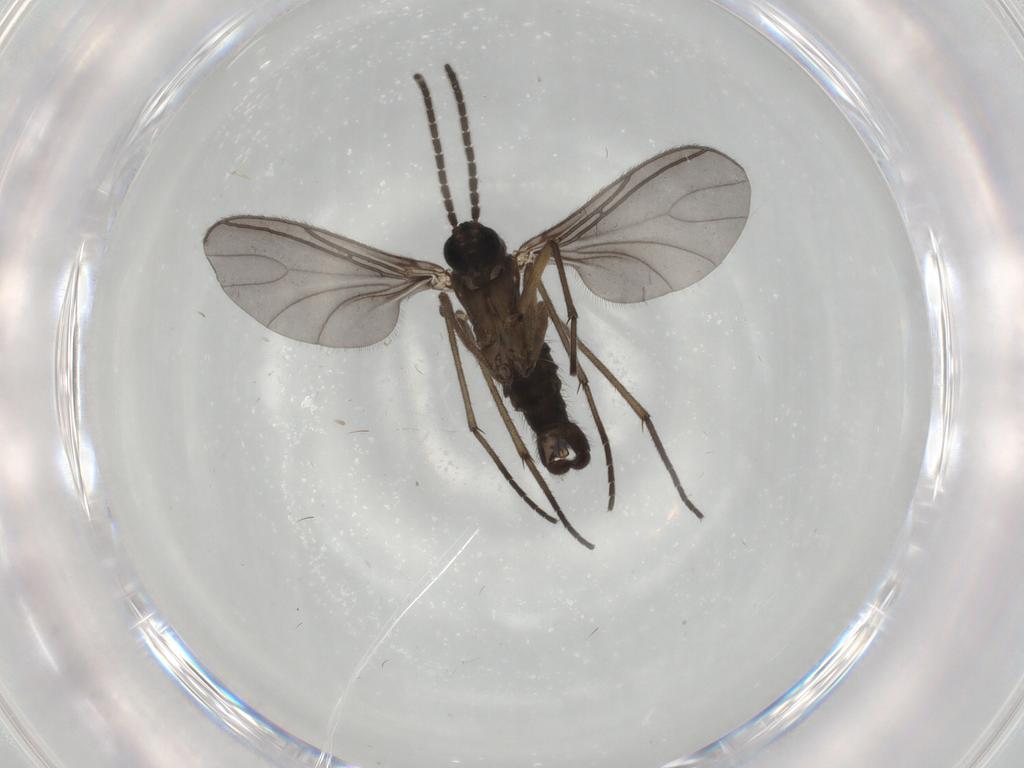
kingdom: Animalia
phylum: Arthropoda
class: Insecta
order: Diptera
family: Sciaridae
